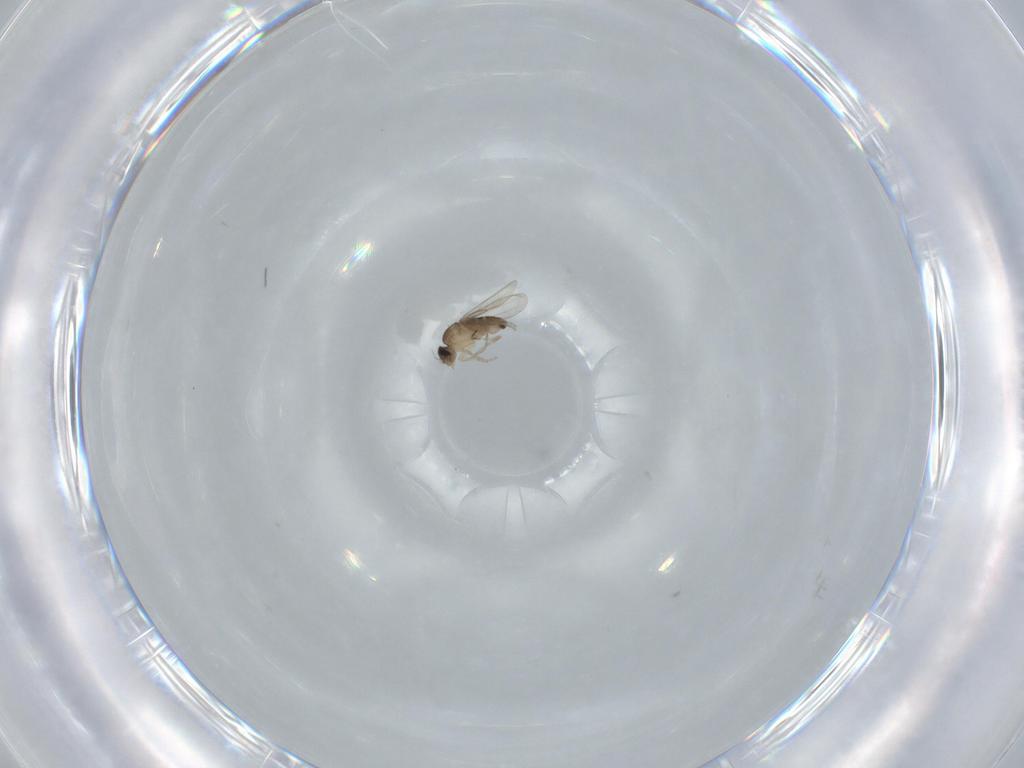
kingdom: Animalia
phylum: Arthropoda
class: Insecta
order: Diptera
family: Phoridae
